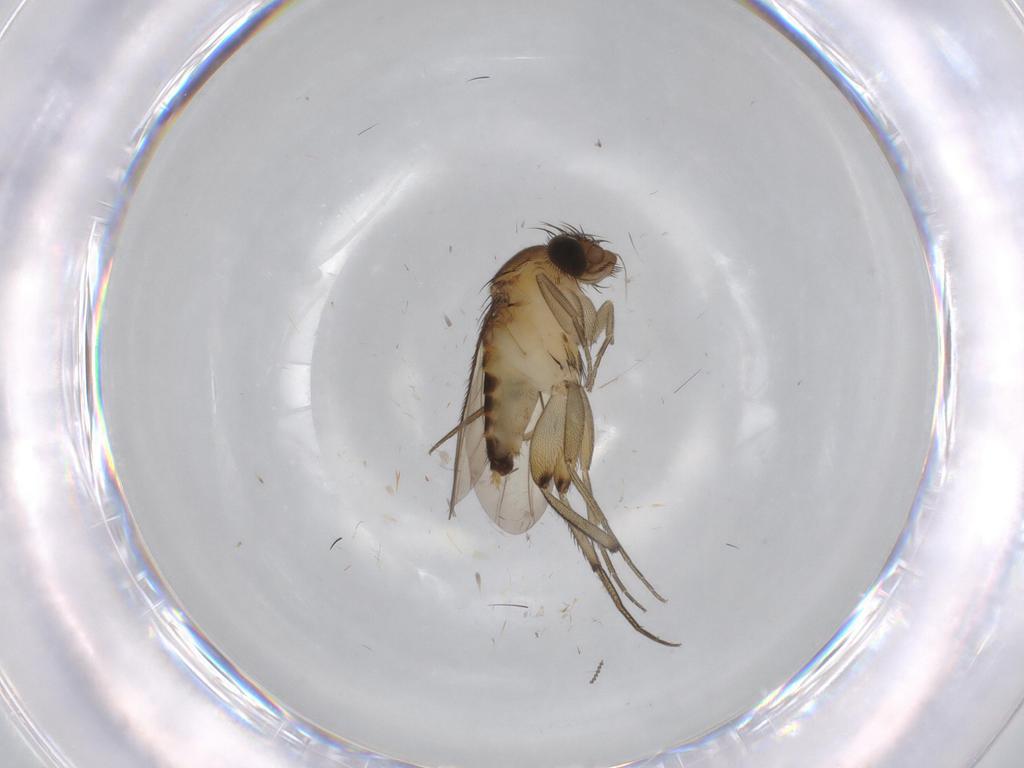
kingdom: Animalia
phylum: Arthropoda
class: Insecta
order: Diptera
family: Phoridae
